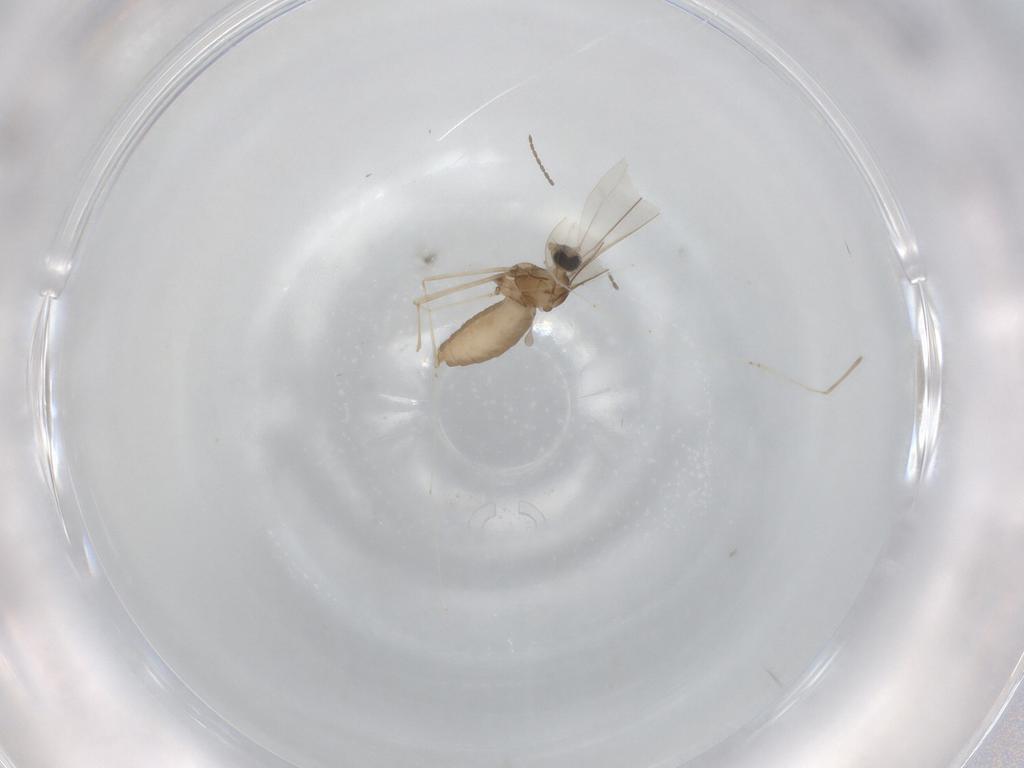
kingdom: Animalia
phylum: Arthropoda
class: Insecta
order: Diptera
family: Cecidomyiidae
